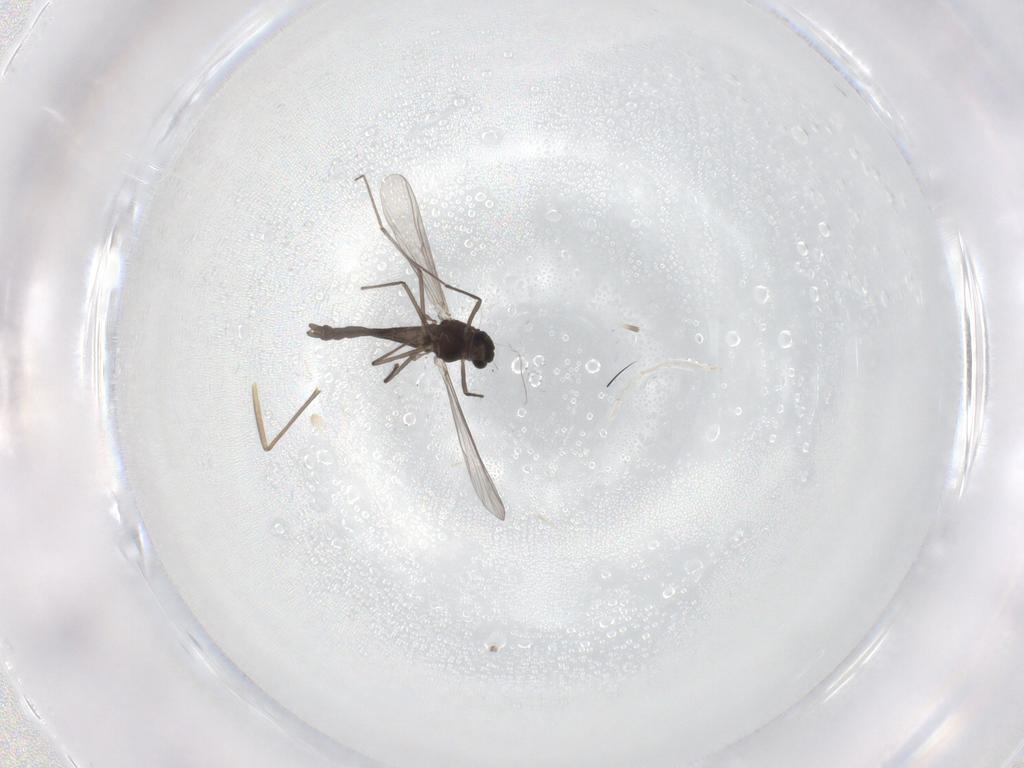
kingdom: Animalia
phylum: Arthropoda
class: Insecta
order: Diptera
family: Chironomidae
